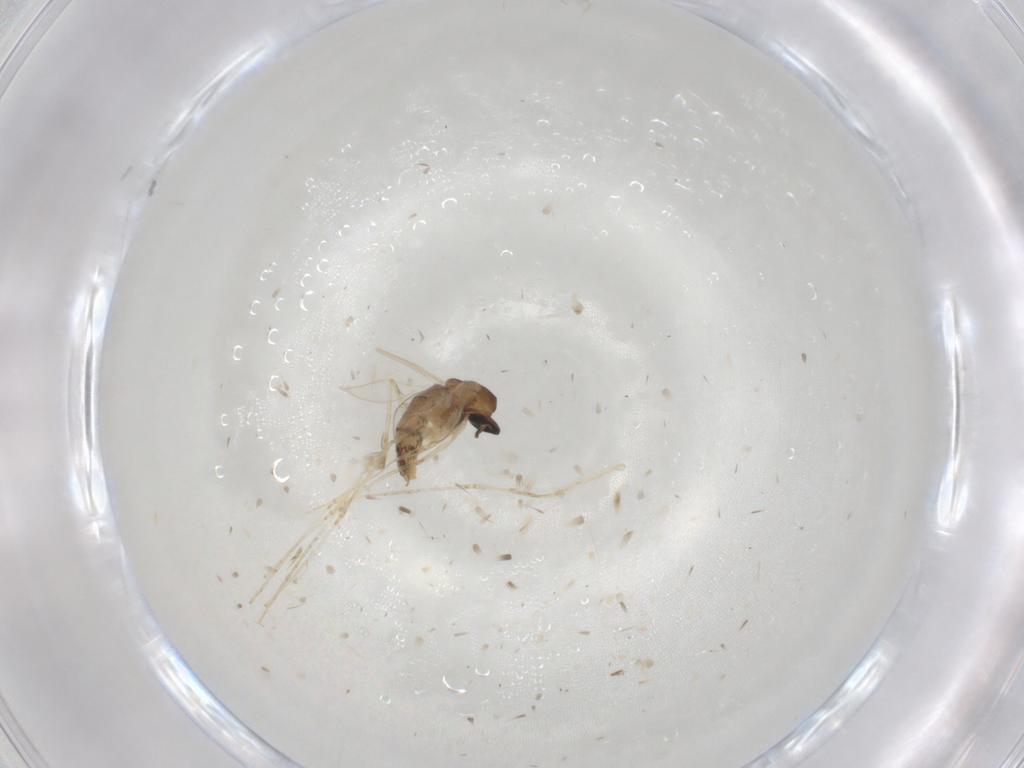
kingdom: Animalia
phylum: Arthropoda
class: Insecta
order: Diptera
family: Cecidomyiidae
